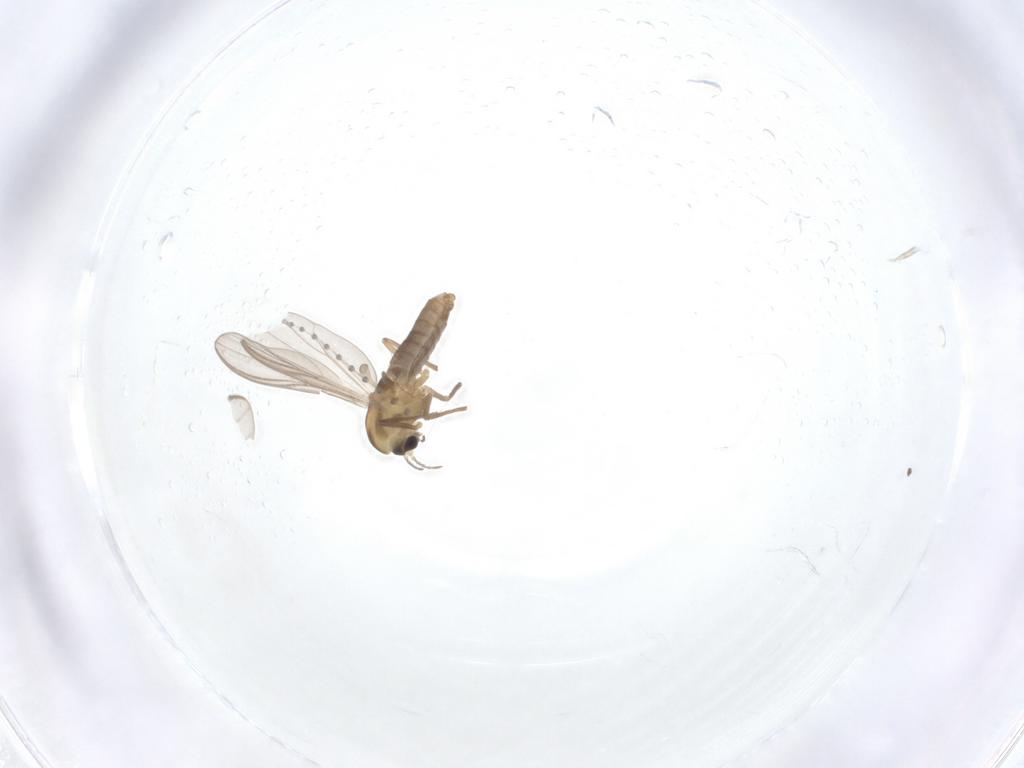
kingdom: Animalia
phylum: Arthropoda
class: Insecta
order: Diptera
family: Chironomidae
